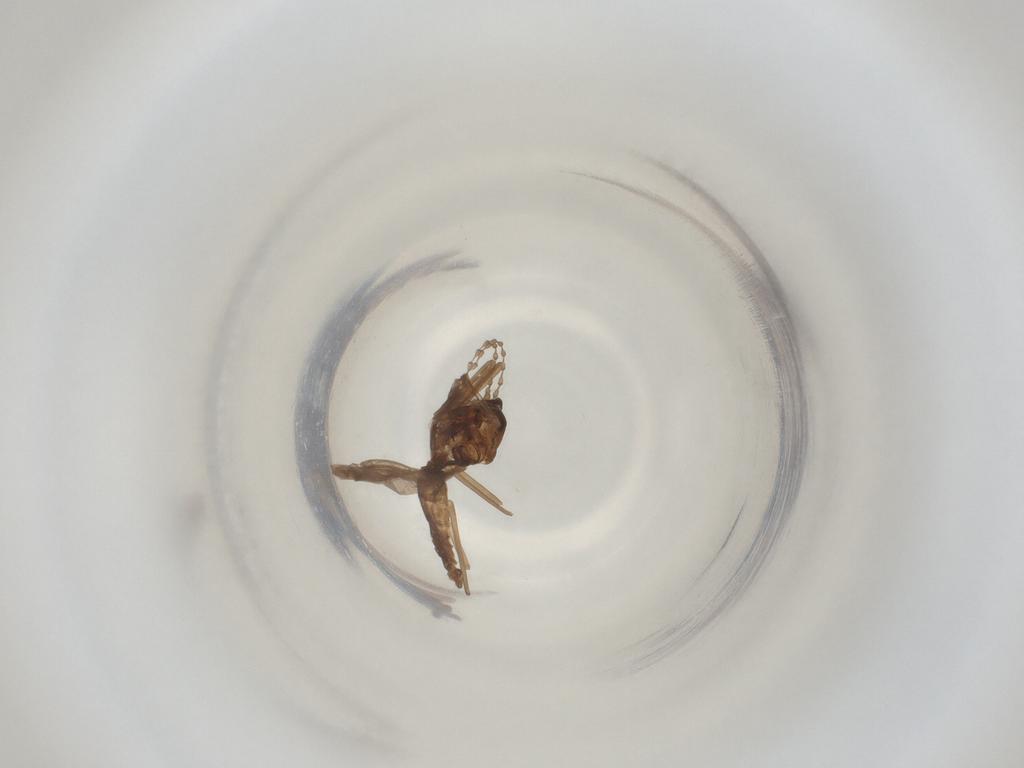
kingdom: Animalia
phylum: Arthropoda
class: Insecta
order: Diptera
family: Cecidomyiidae
